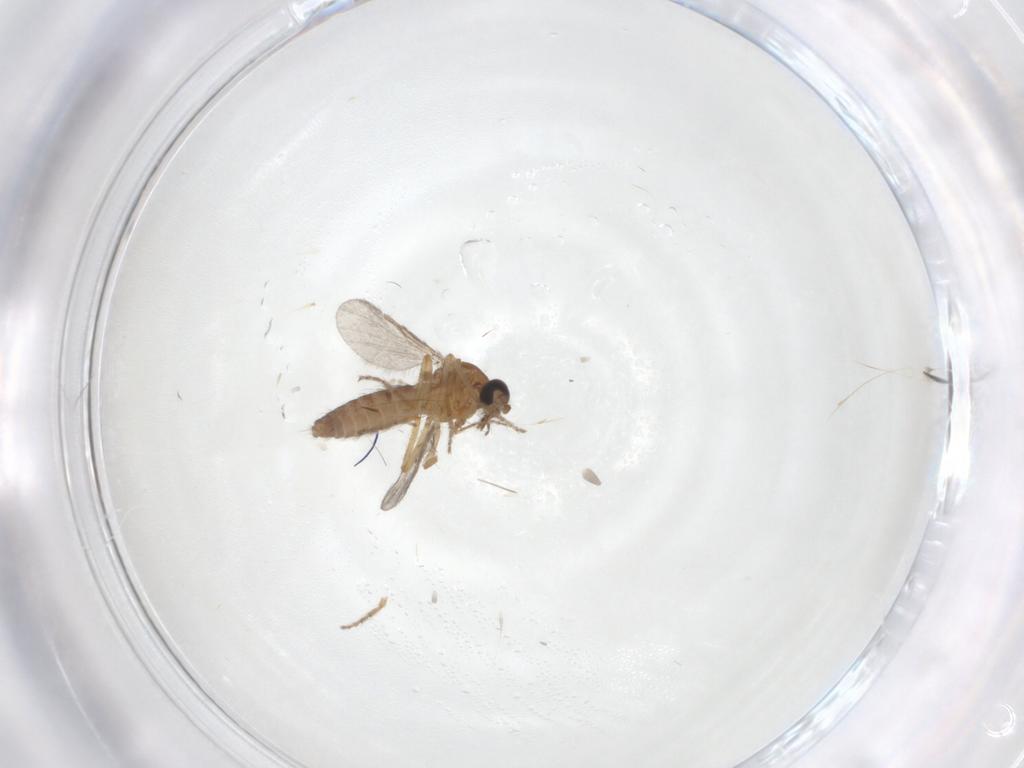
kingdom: Animalia
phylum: Arthropoda
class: Insecta
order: Diptera
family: Ceratopogonidae
